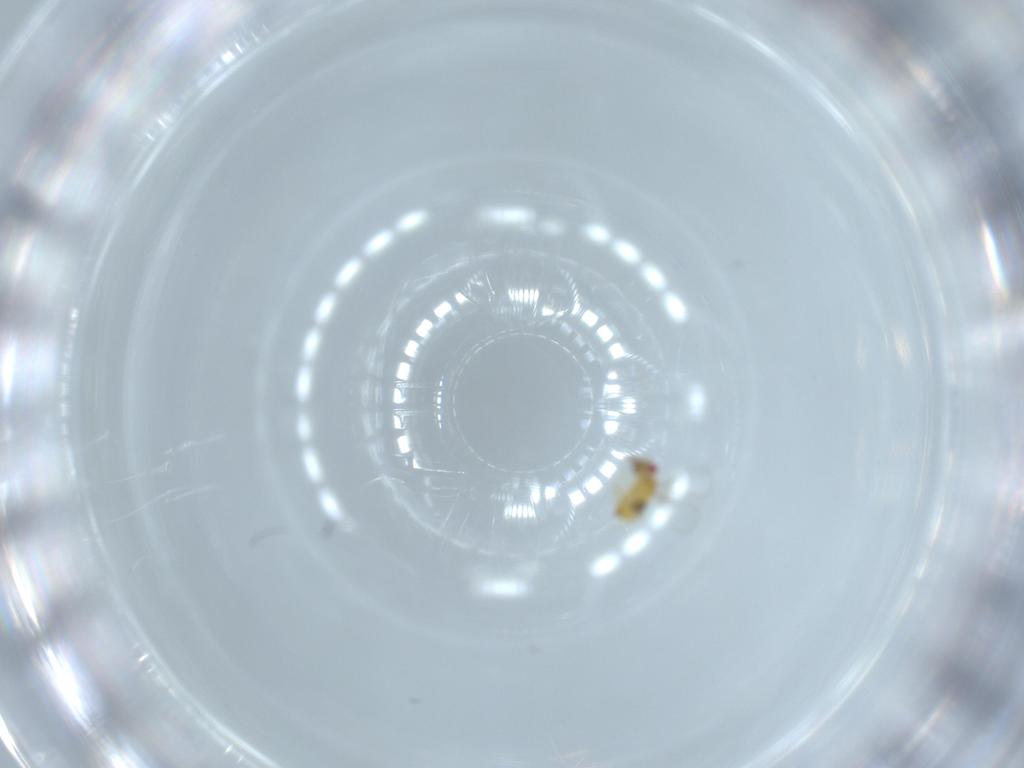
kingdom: Animalia
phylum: Arthropoda
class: Insecta
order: Hymenoptera
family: Trichogrammatidae
